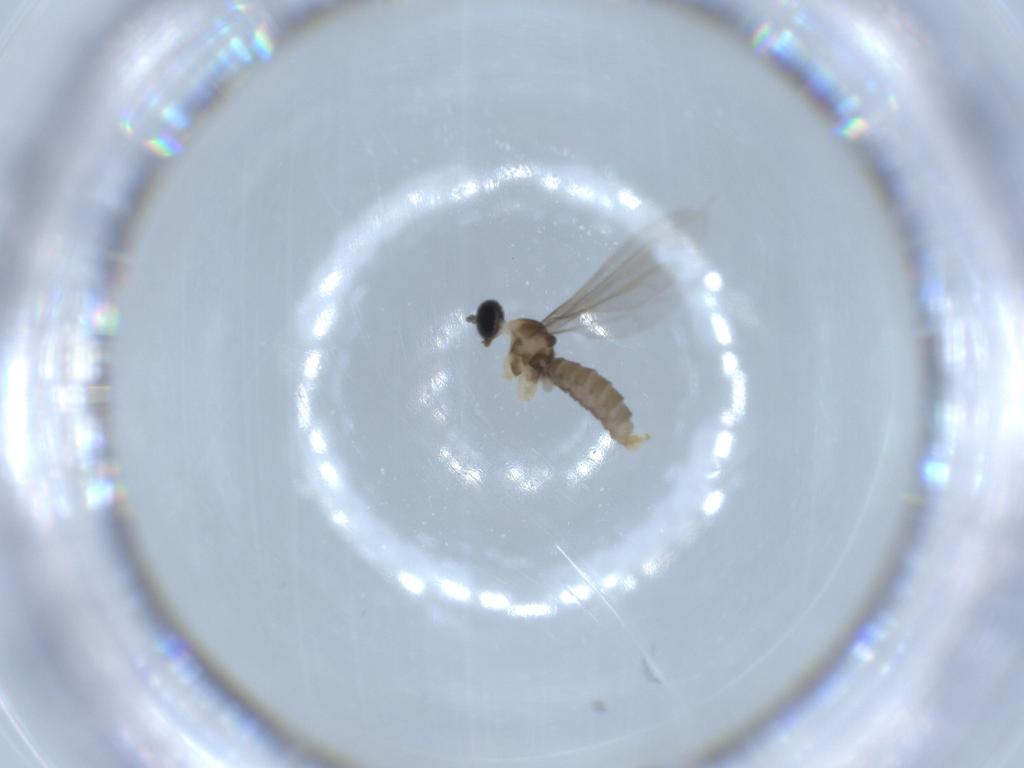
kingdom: Animalia
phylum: Arthropoda
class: Insecta
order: Diptera
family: Cecidomyiidae
